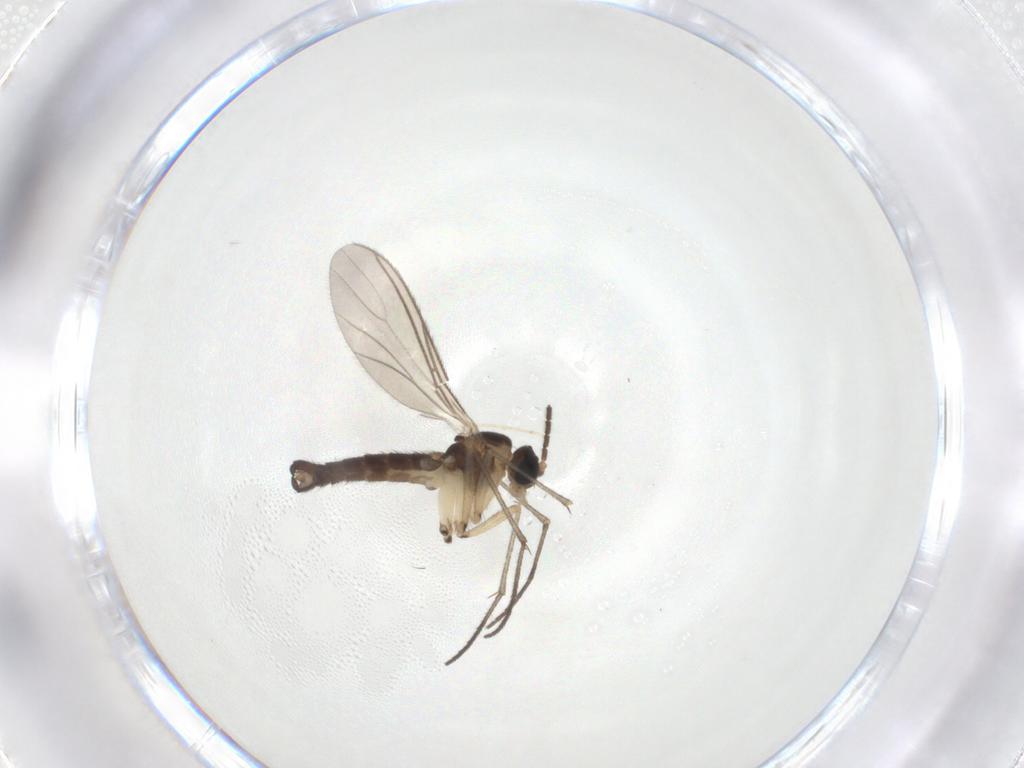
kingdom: Animalia
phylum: Arthropoda
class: Insecta
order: Diptera
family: Sciaridae
